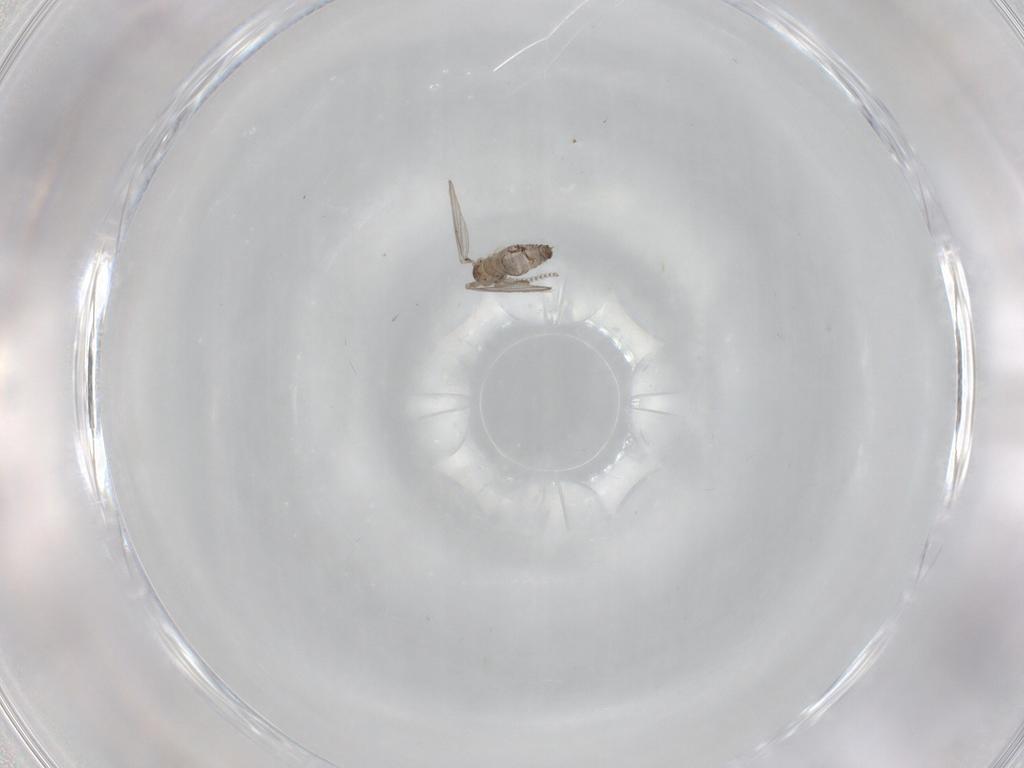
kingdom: Animalia
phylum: Arthropoda
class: Insecta
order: Diptera
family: Psychodidae
